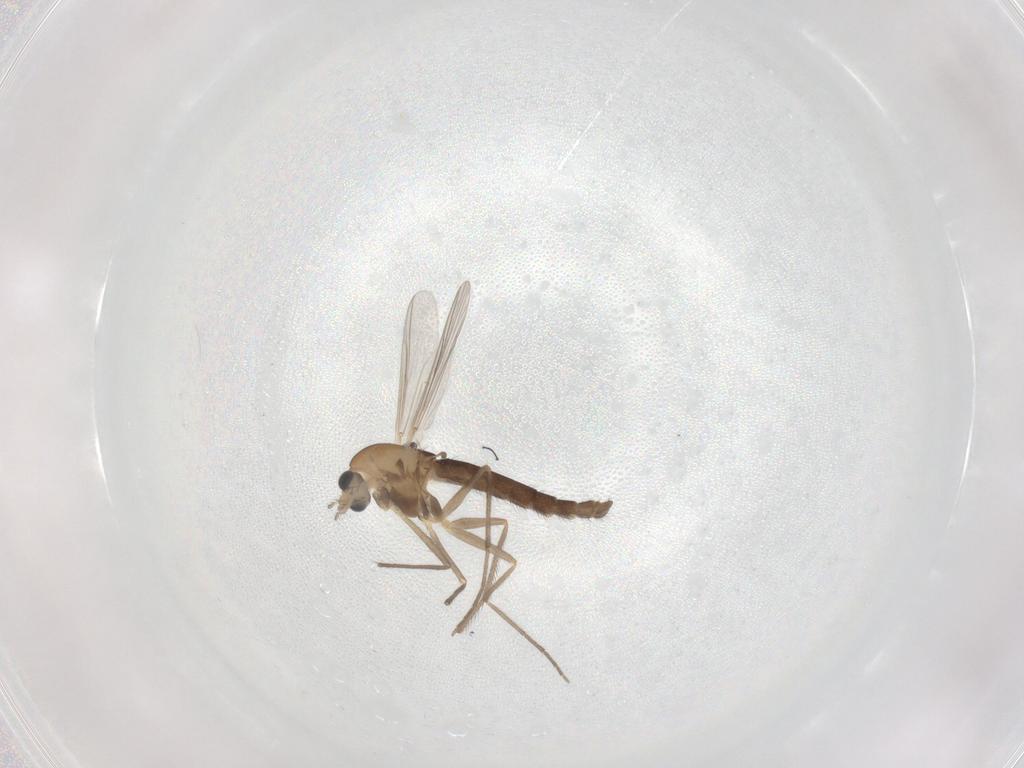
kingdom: Animalia
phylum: Arthropoda
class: Insecta
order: Diptera
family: Chironomidae
